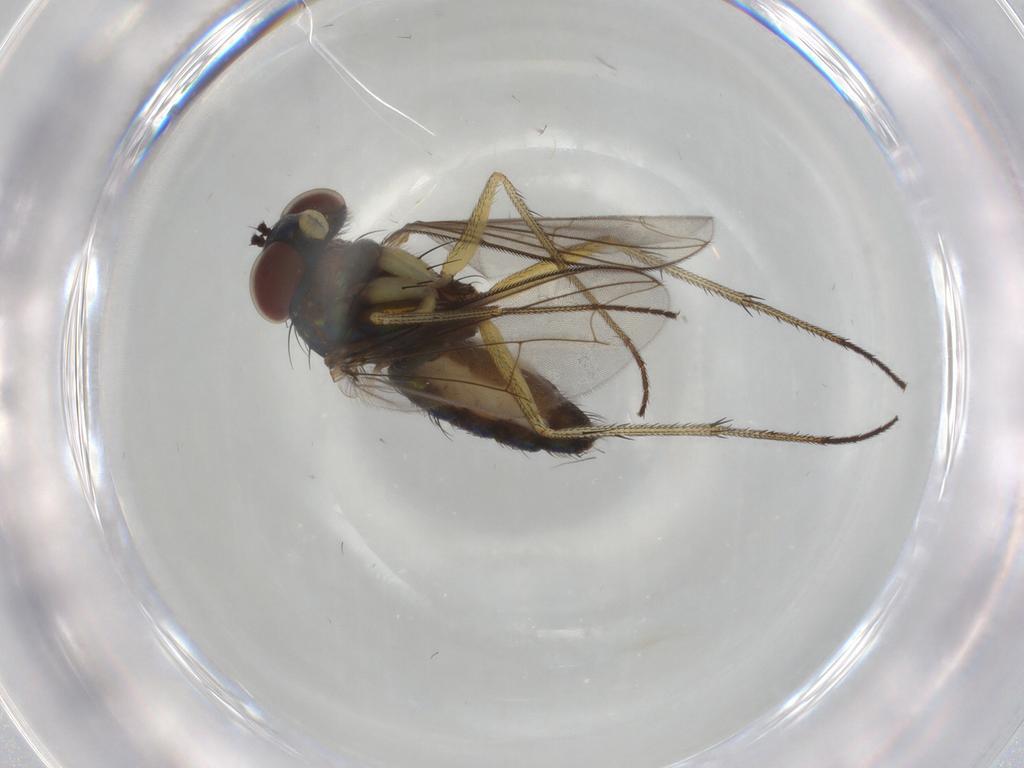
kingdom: Animalia
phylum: Arthropoda
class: Insecta
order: Diptera
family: Dolichopodidae
